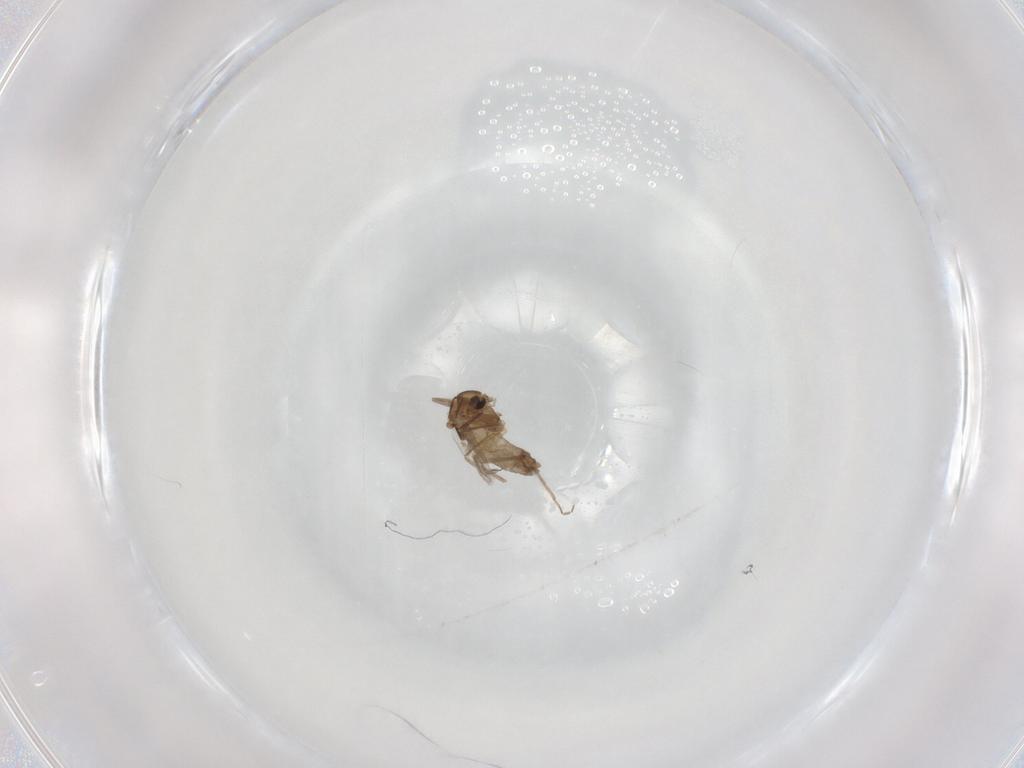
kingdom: Animalia
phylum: Arthropoda
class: Insecta
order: Diptera
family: Chironomidae
